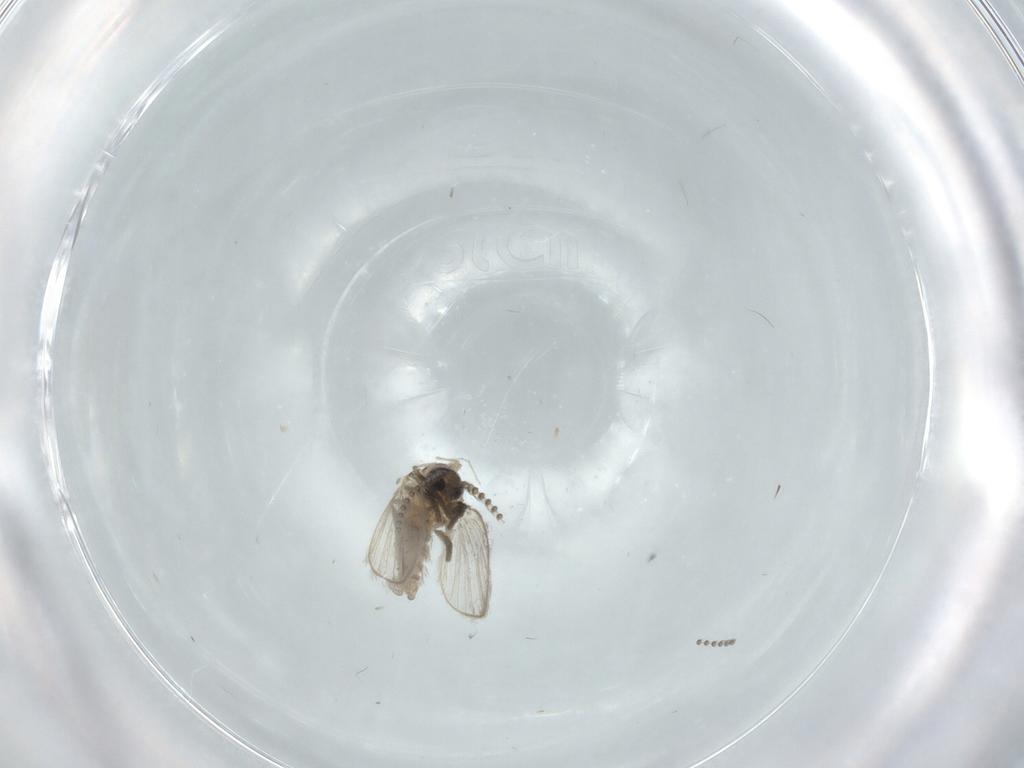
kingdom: Animalia
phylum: Arthropoda
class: Insecta
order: Diptera
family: Psychodidae
